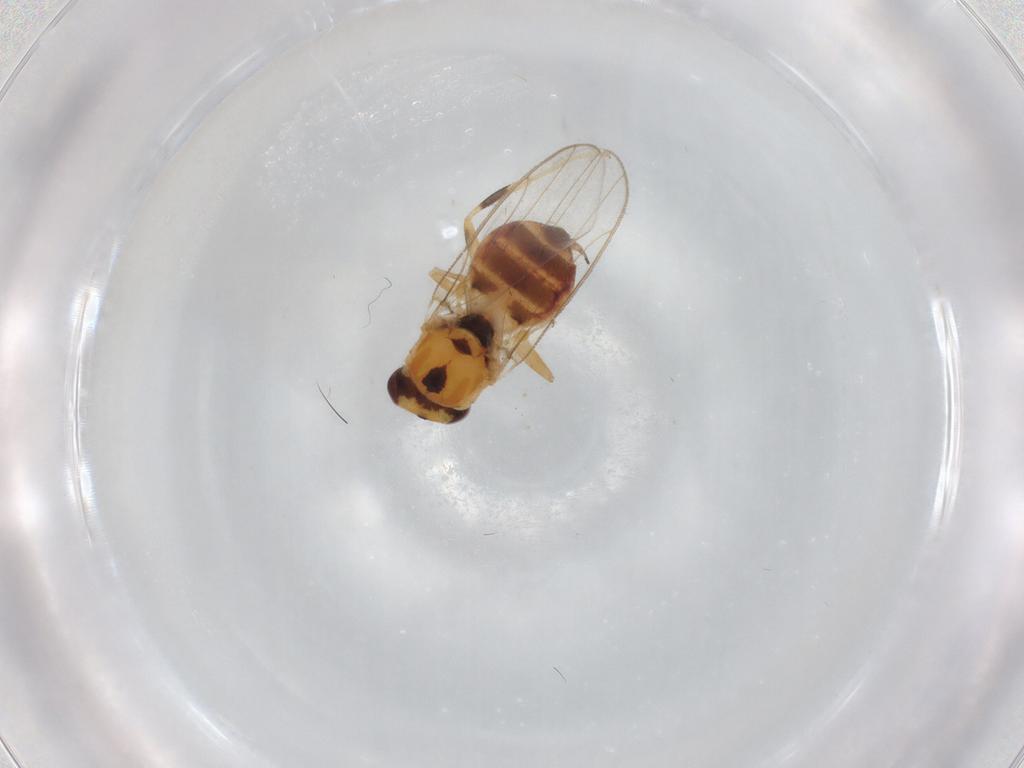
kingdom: Animalia
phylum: Arthropoda
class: Insecta
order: Diptera
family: Chloropidae
